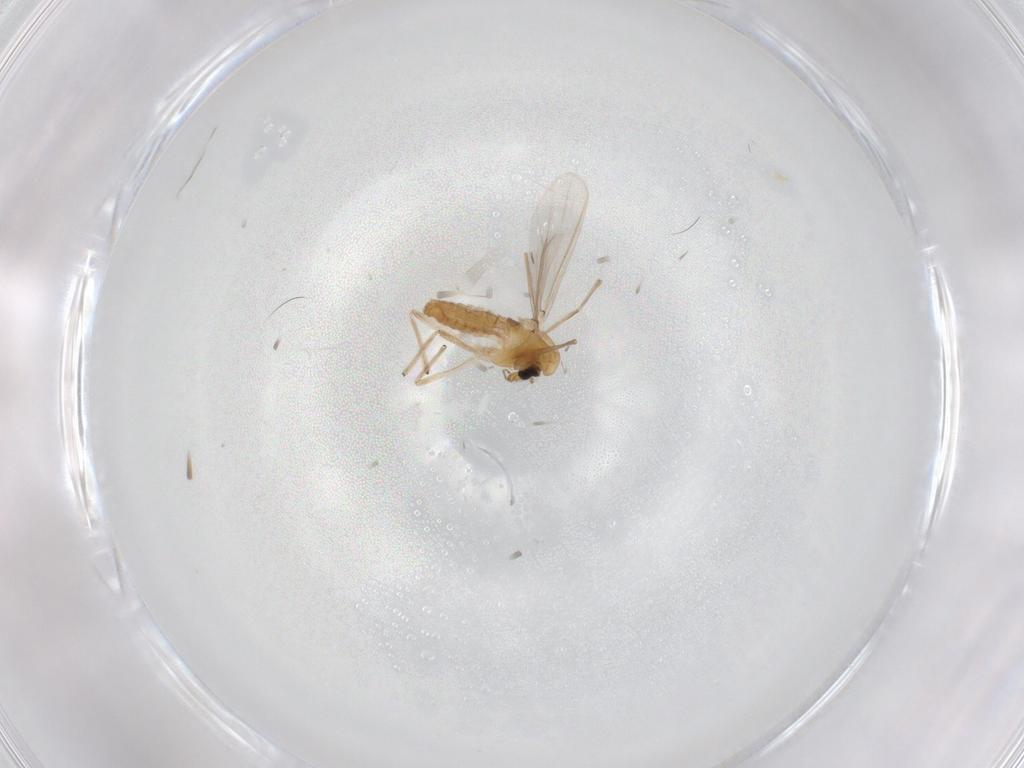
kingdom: Animalia
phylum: Arthropoda
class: Insecta
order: Diptera
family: Chironomidae
